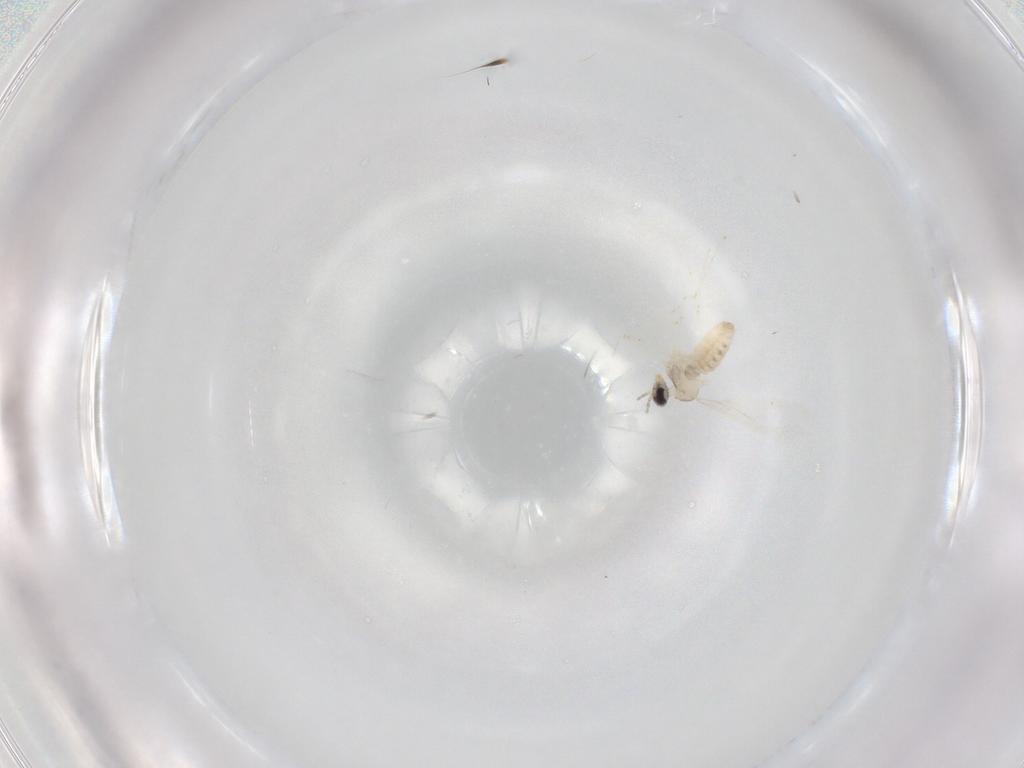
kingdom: Animalia
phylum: Arthropoda
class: Insecta
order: Diptera
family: Cecidomyiidae
